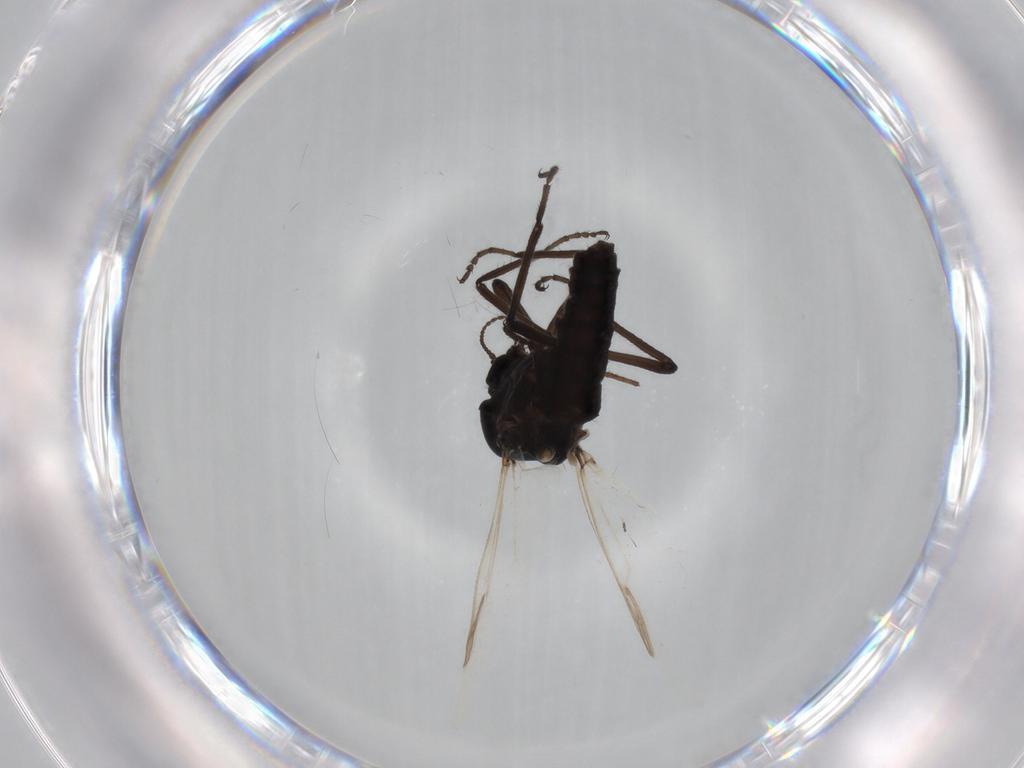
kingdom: Animalia
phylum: Arthropoda
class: Insecta
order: Diptera
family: Ceratopogonidae
